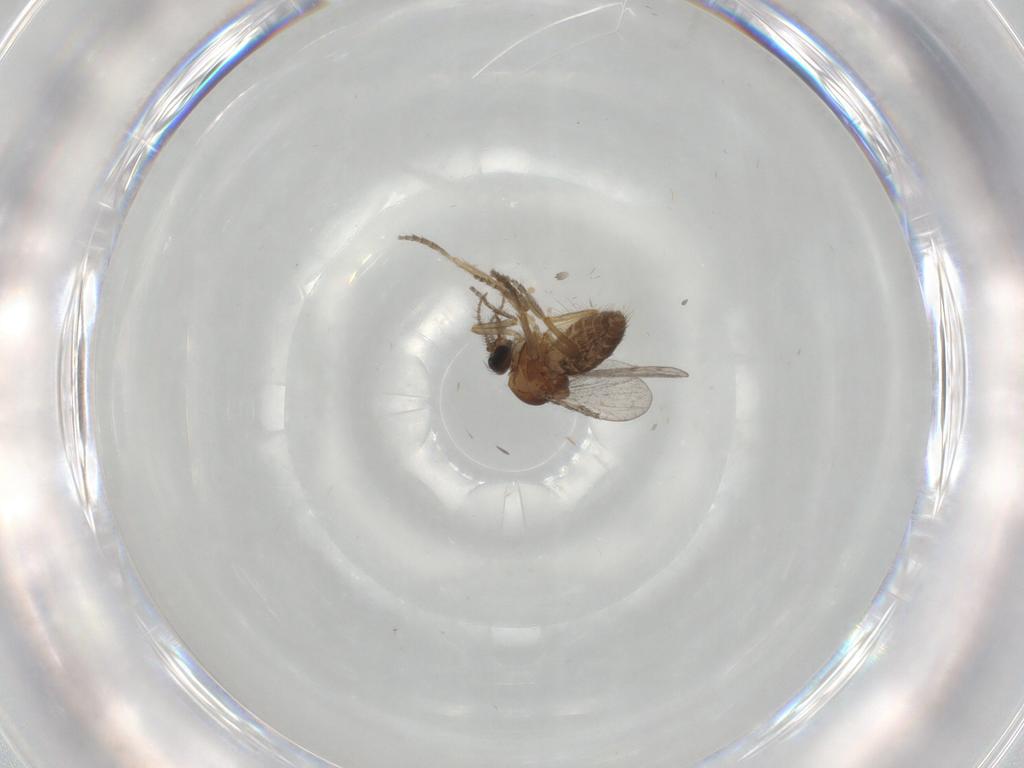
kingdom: Animalia
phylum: Arthropoda
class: Insecta
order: Diptera
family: Ceratopogonidae
